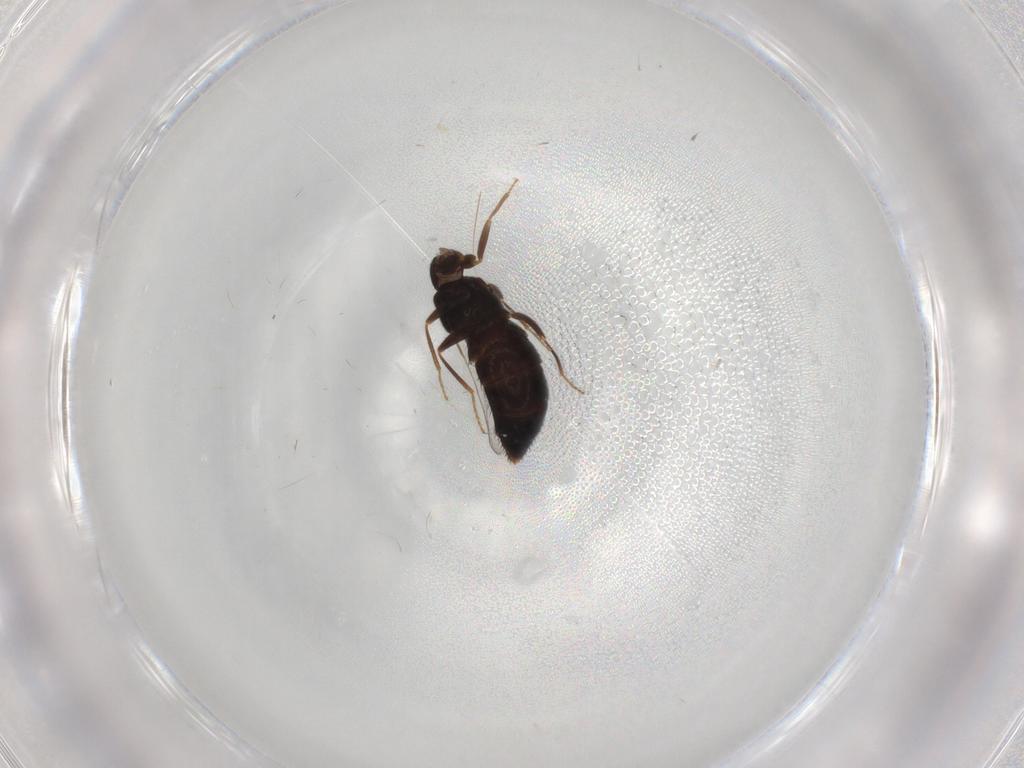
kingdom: Animalia
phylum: Arthropoda
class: Insecta
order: Coleoptera
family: Staphylinidae
